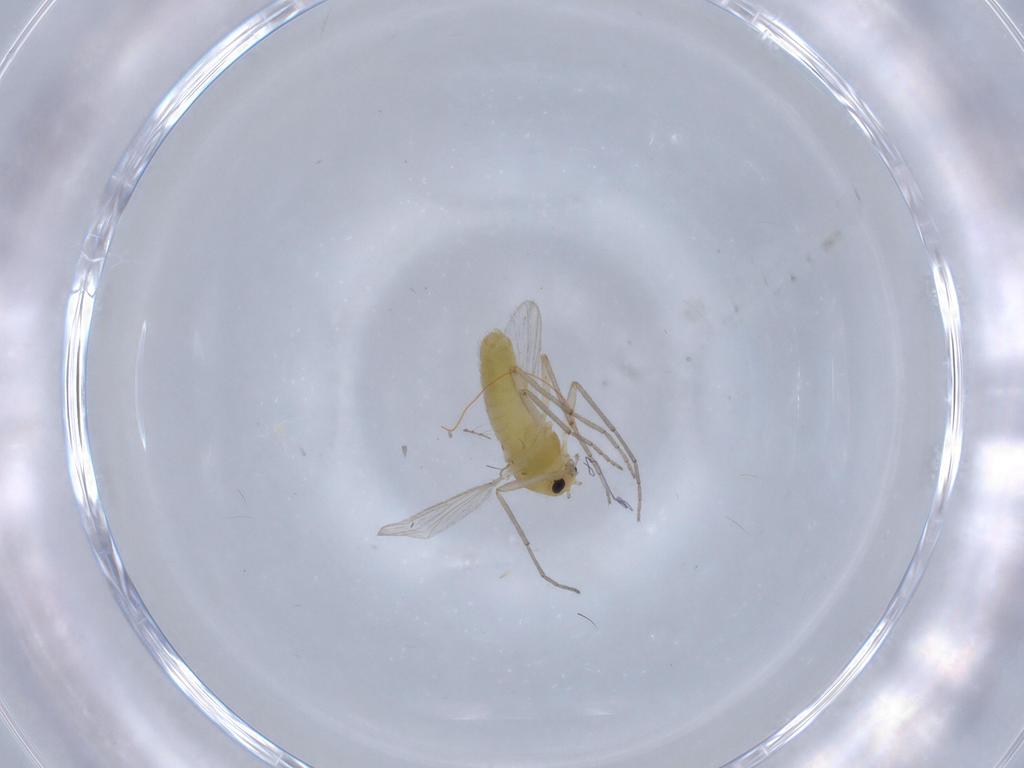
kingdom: Animalia
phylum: Arthropoda
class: Insecta
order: Diptera
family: Chironomidae
